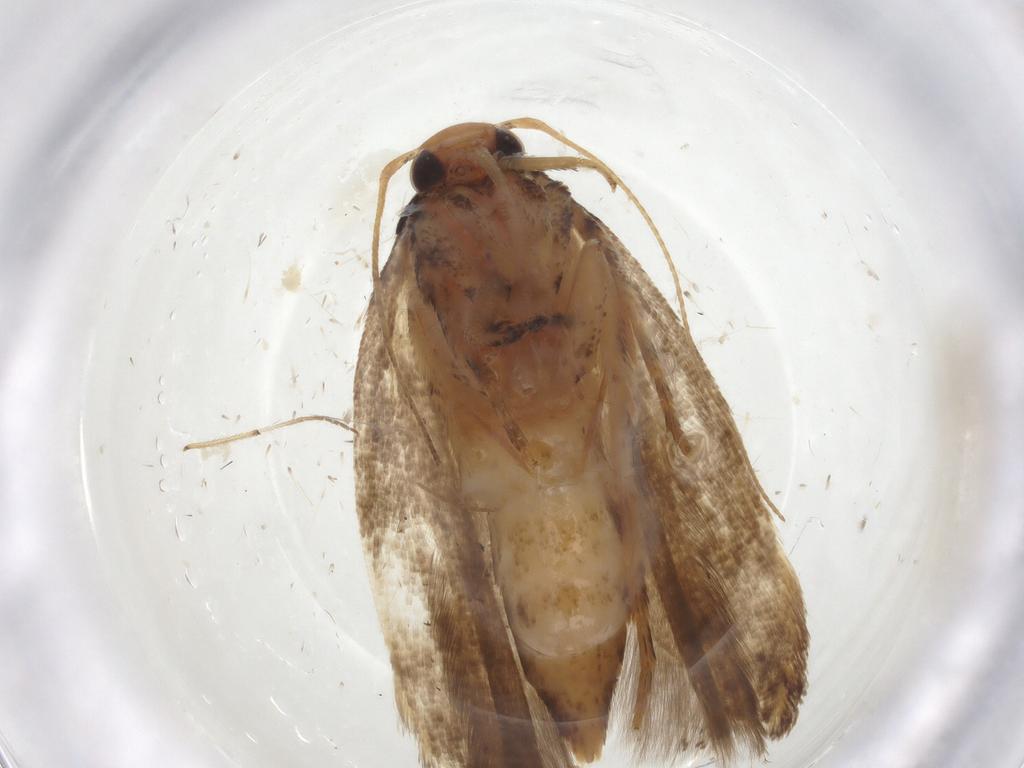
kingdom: Animalia
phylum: Arthropoda
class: Insecta
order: Lepidoptera
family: Gelechiidae
